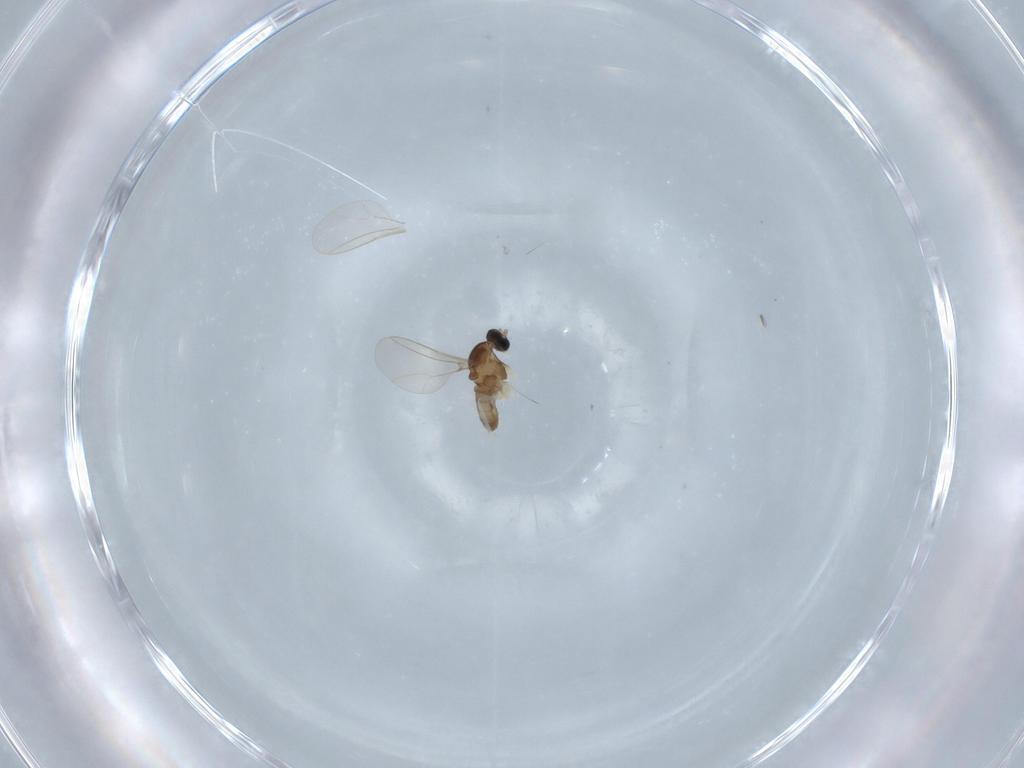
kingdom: Animalia
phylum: Arthropoda
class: Insecta
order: Diptera
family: Cecidomyiidae
